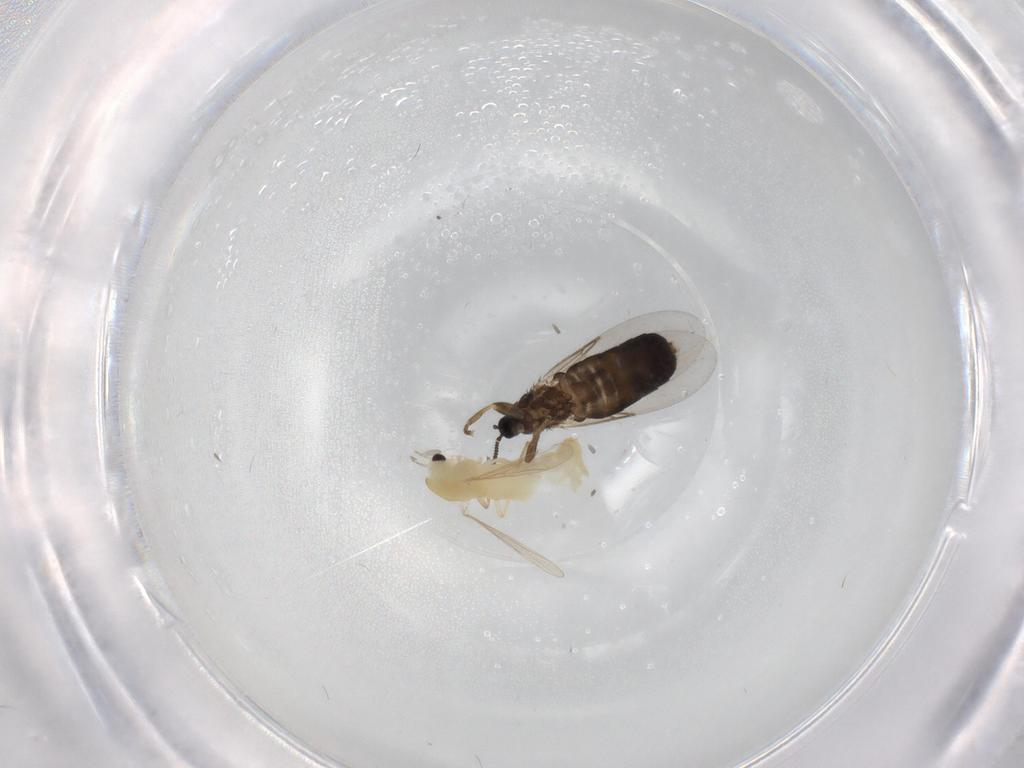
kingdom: Animalia
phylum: Arthropoda
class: Insecta
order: Diptera
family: Chironomidae
